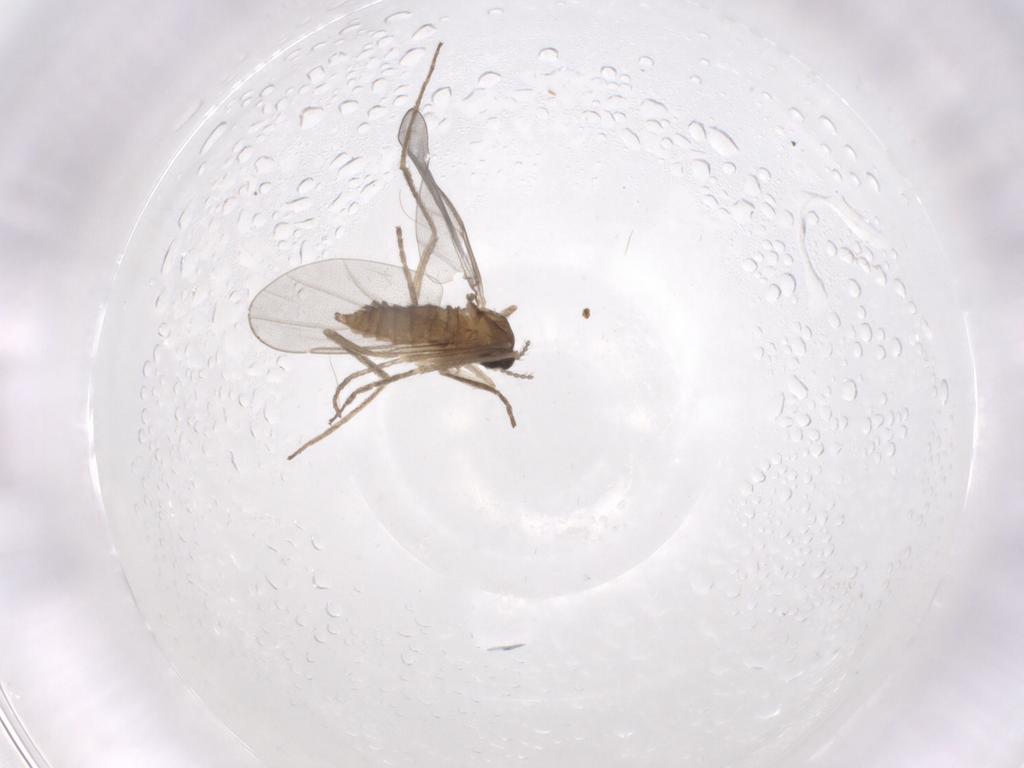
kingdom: Animalia
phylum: Arthropoda
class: Insecta
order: Diptera
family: Cecidomyiidae
